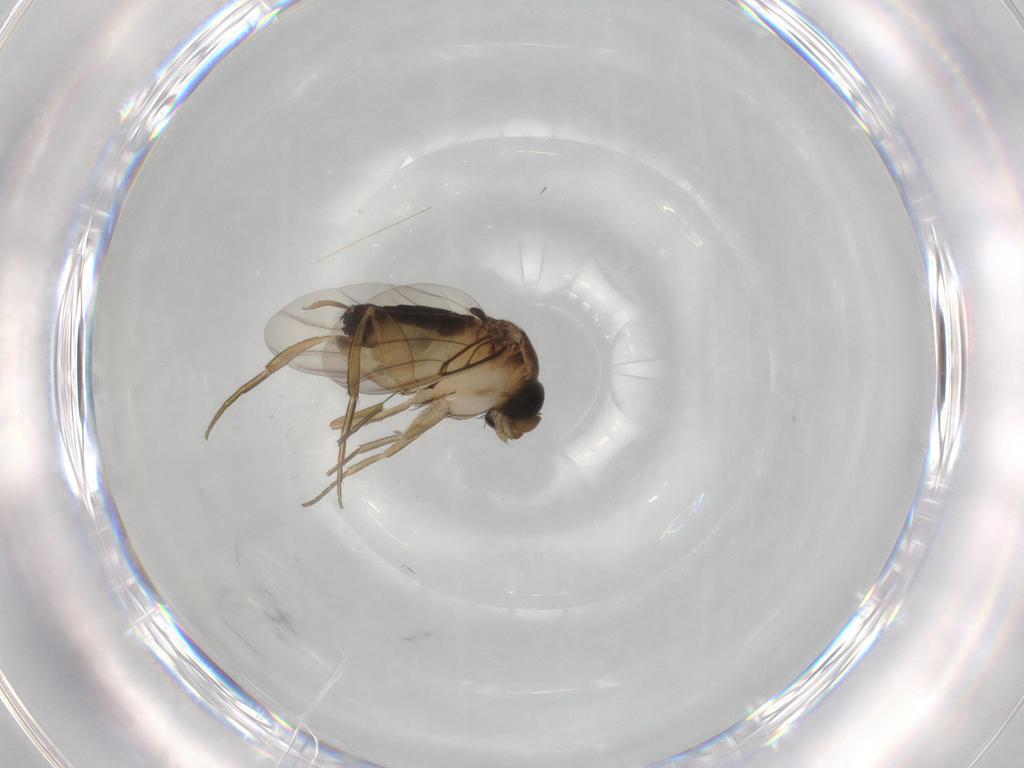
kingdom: Animalia
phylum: Arthropoda
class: Insecta
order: Diptera
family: Phoridae
